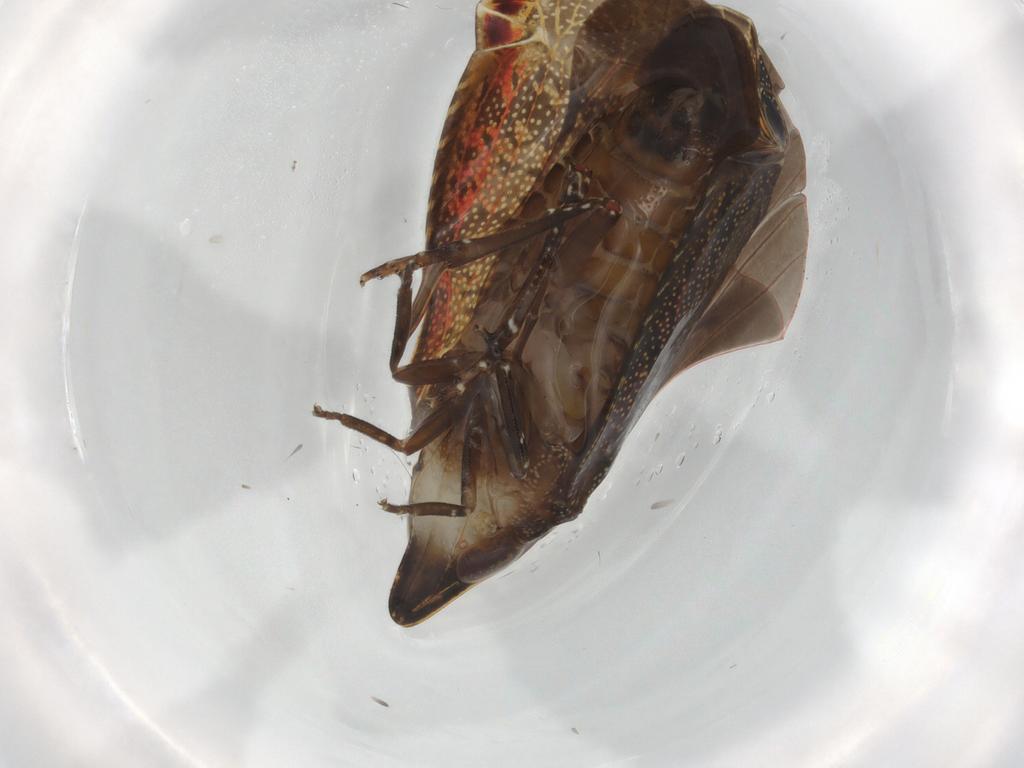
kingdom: Animalia
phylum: Arthropoda
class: Insecta
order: Hemiptera
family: Achilidae
